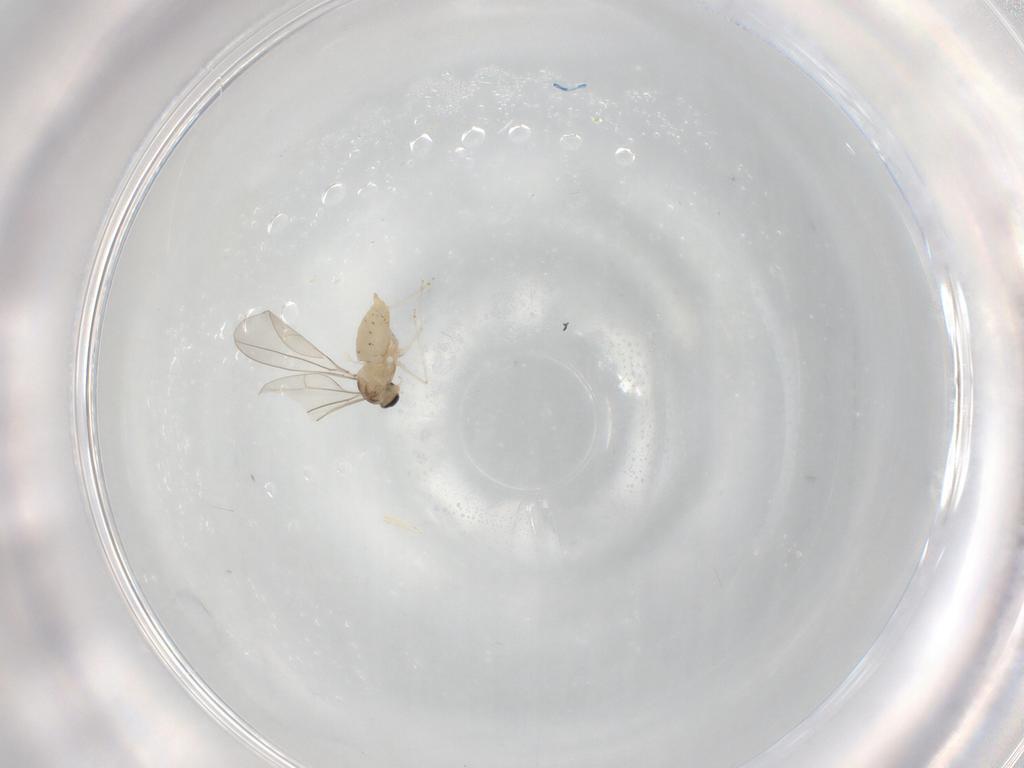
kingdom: Animalia
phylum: Arthropoda
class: Insecta
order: Diptera
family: Cecidomyiidae
